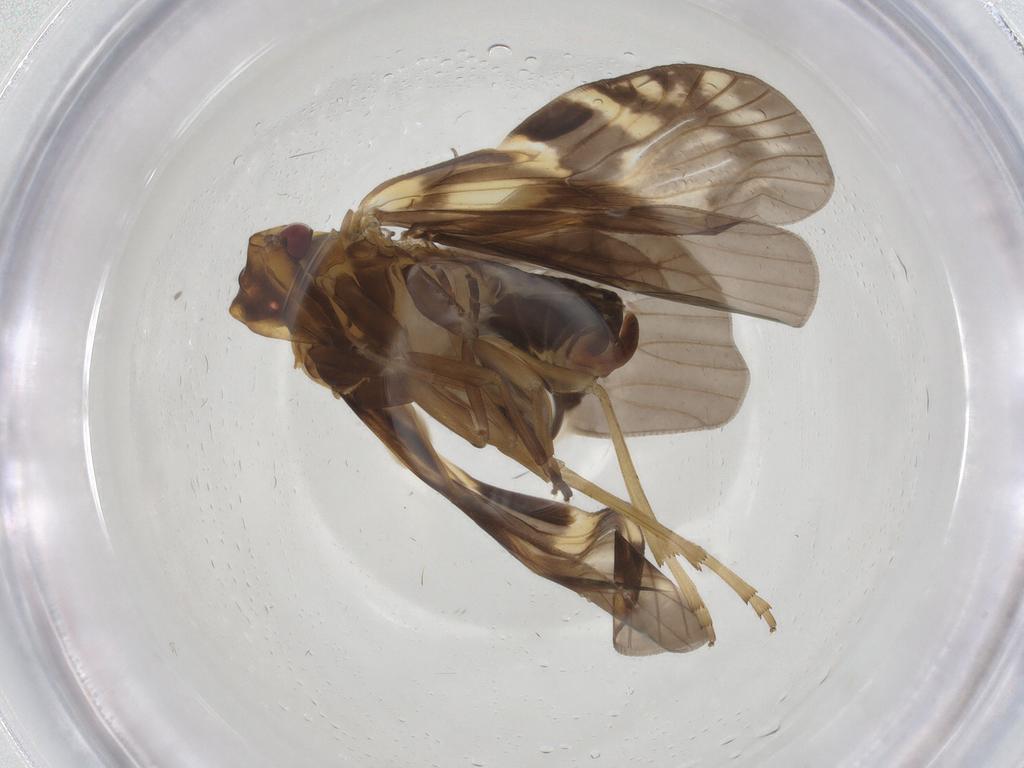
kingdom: Animalia
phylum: Arthropoda
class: Insecta
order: Hemiptera
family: Cixiidae
